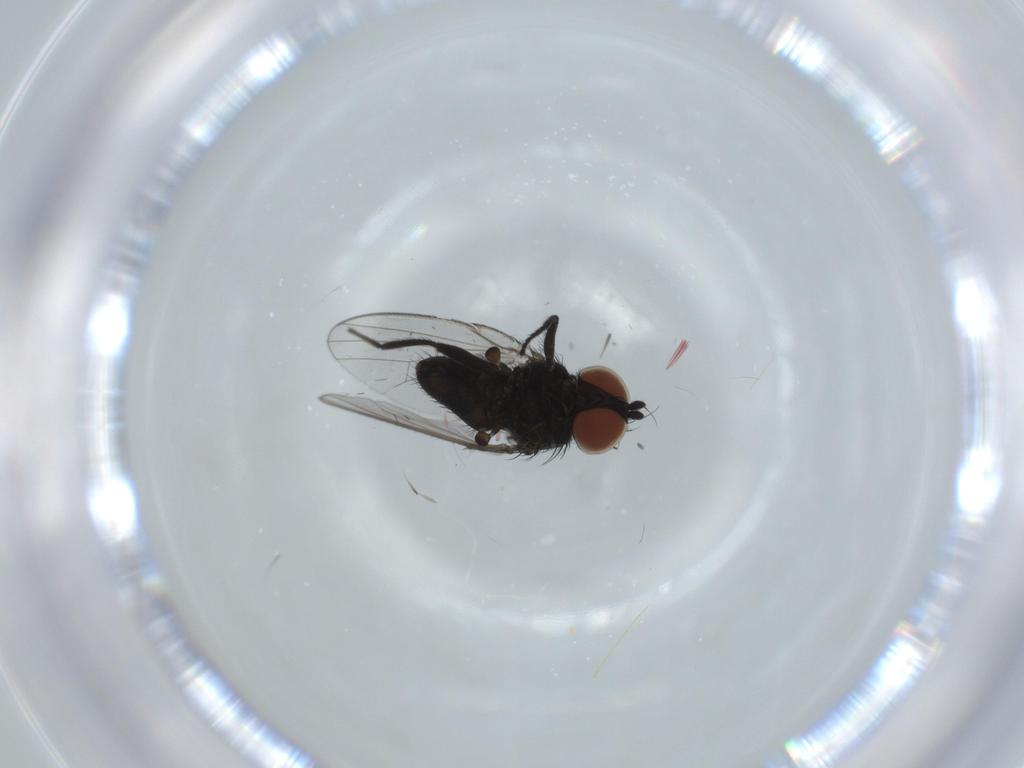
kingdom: Animalia
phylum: Arthropoda
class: Insecta
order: Diptera
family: Milichiidae
